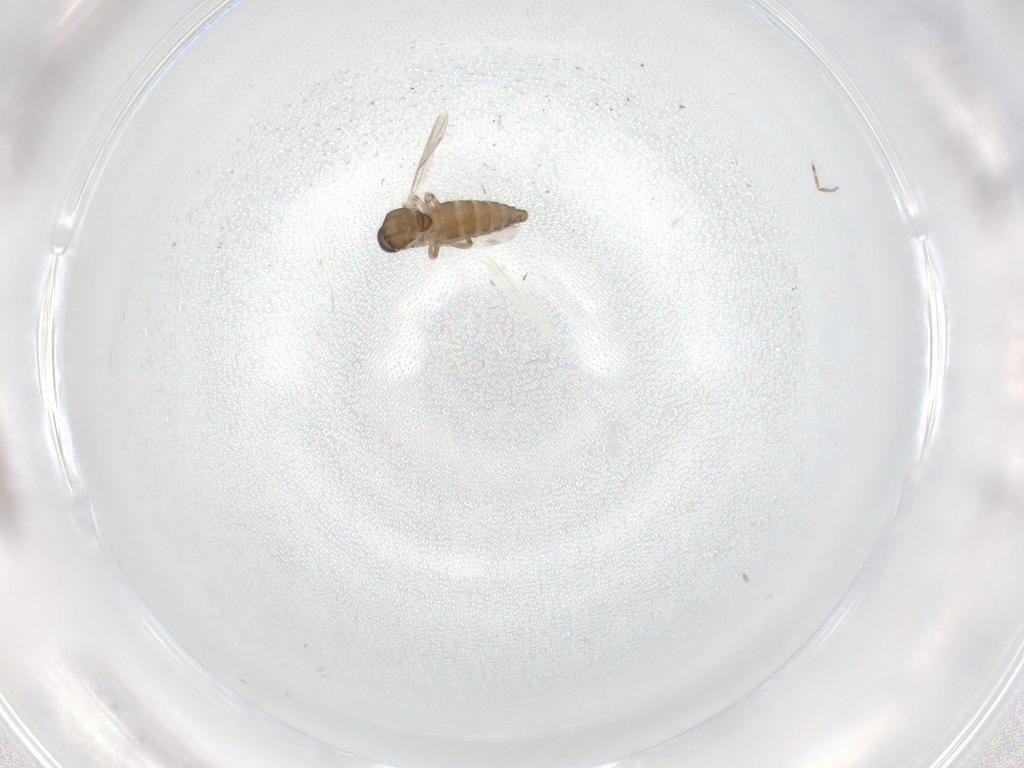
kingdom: Animalia
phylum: Arthropoda
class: Insecta
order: Diptera
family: Ceratopogonidae
